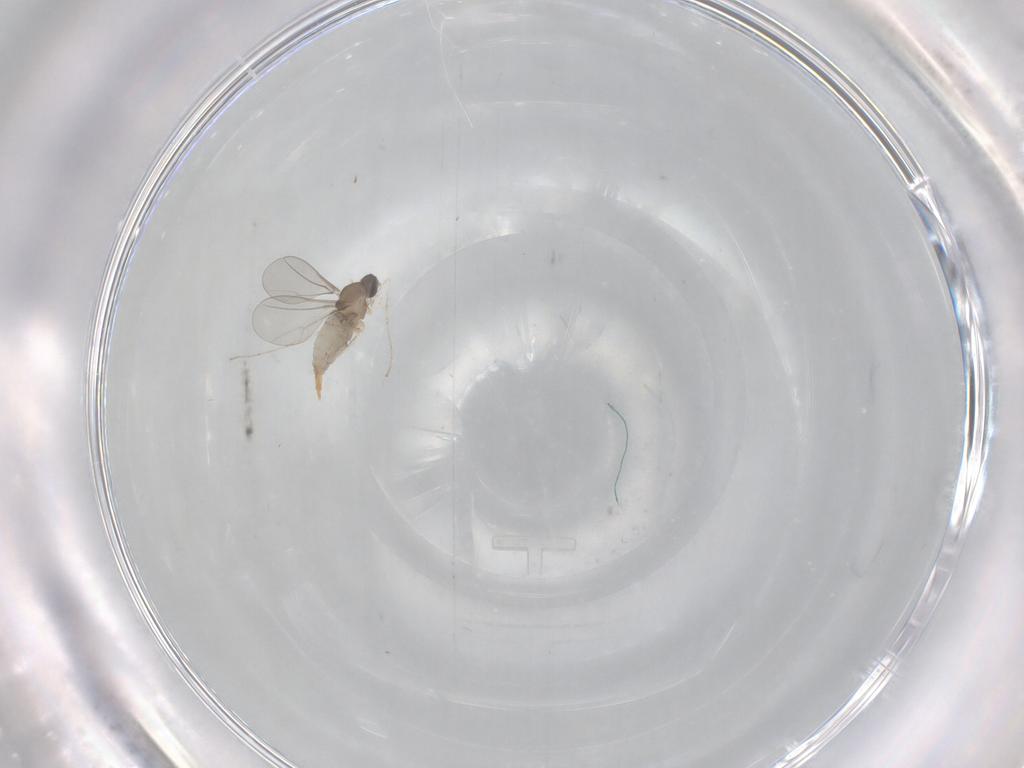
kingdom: Animalia
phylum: Arthropoda
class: Insecta
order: Diptera
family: Cecidomyiidae
